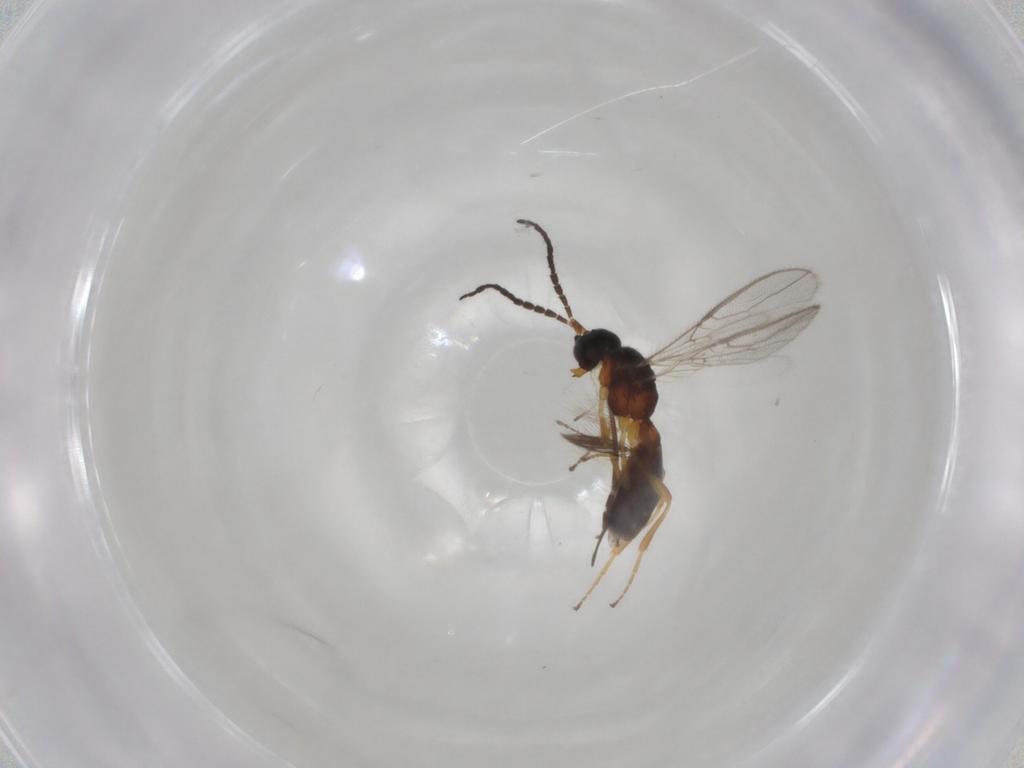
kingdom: Animalia
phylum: Arthropoda
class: Insecta
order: Hymenoptera
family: Braconidae
